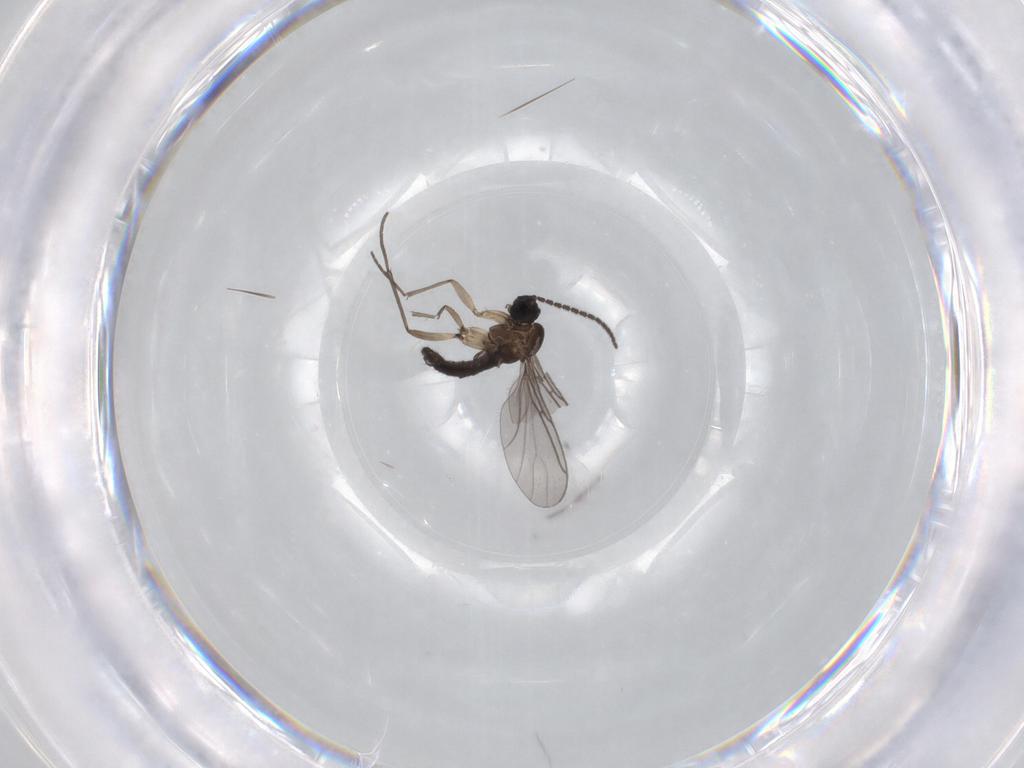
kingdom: Animalia
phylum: Arthropoda
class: Insecta
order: Diptera
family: Sciaridae
